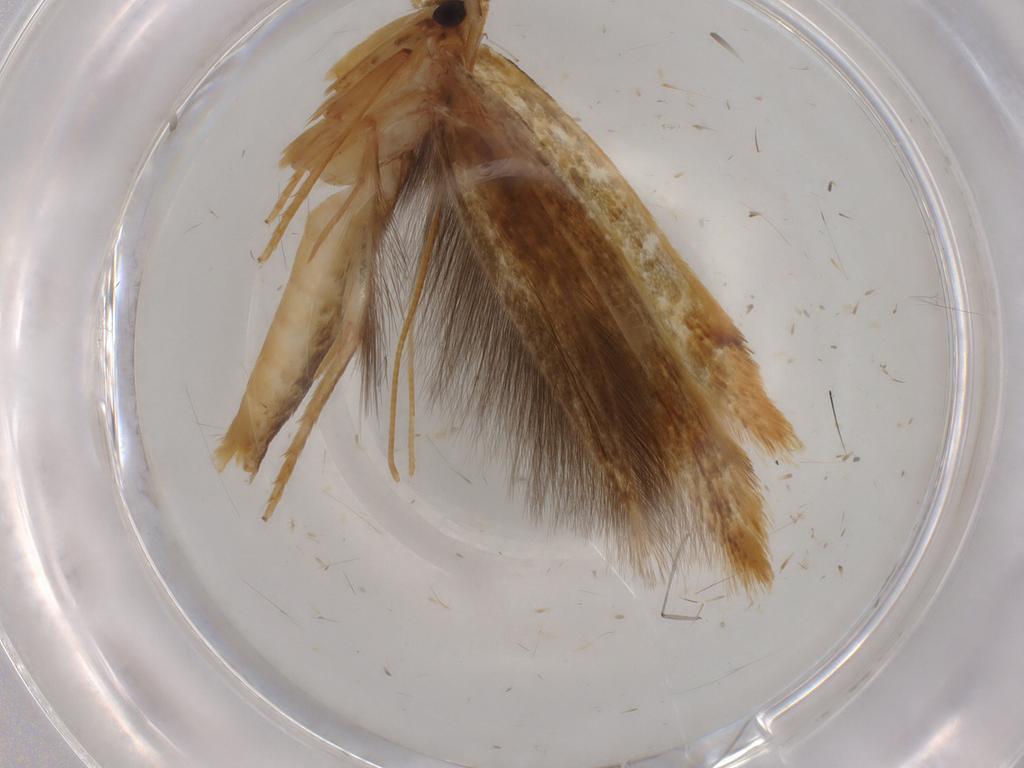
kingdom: Animalia
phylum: Arthropoda
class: Insecta
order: Lepidoptera
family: Tineidae
